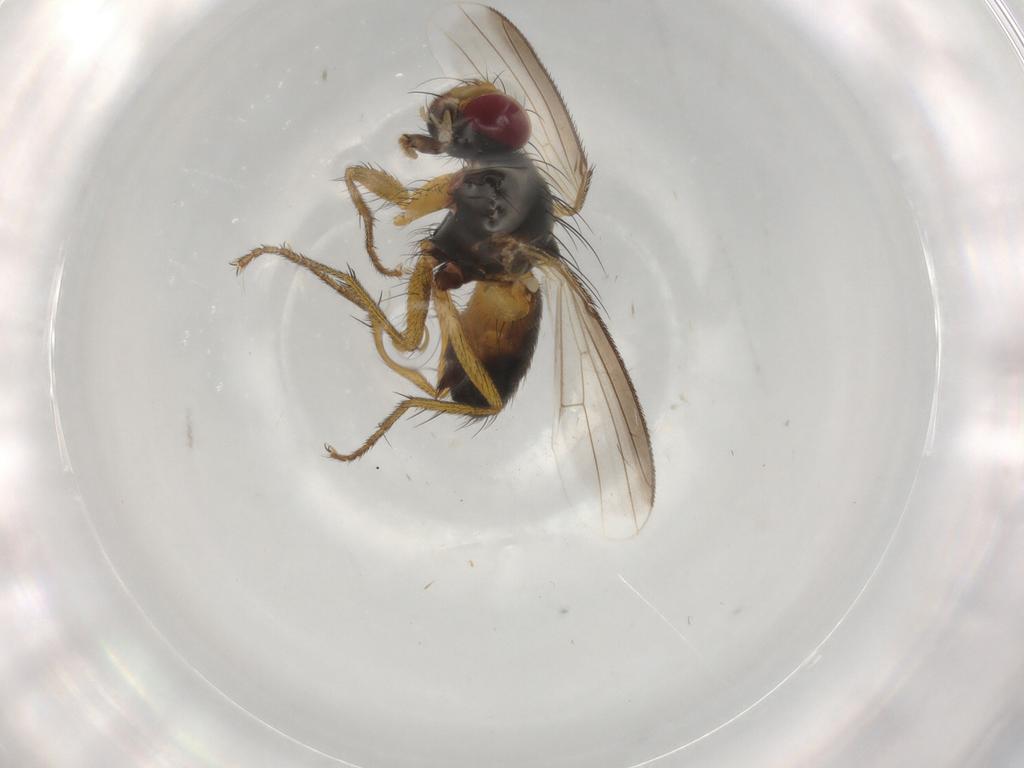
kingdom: Animalia
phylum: Arthropoda
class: Insecta
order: Diptera
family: Muscidae
